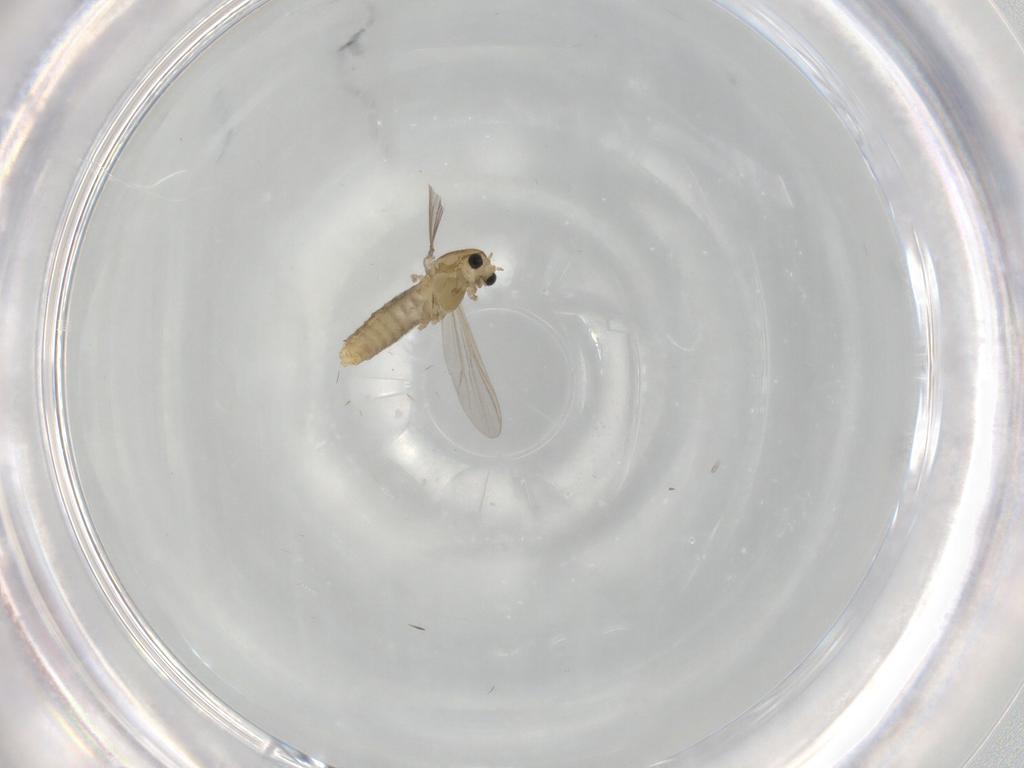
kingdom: Animalia
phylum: Arthropoda
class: Insecta
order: Diptera
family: Chironomidae
